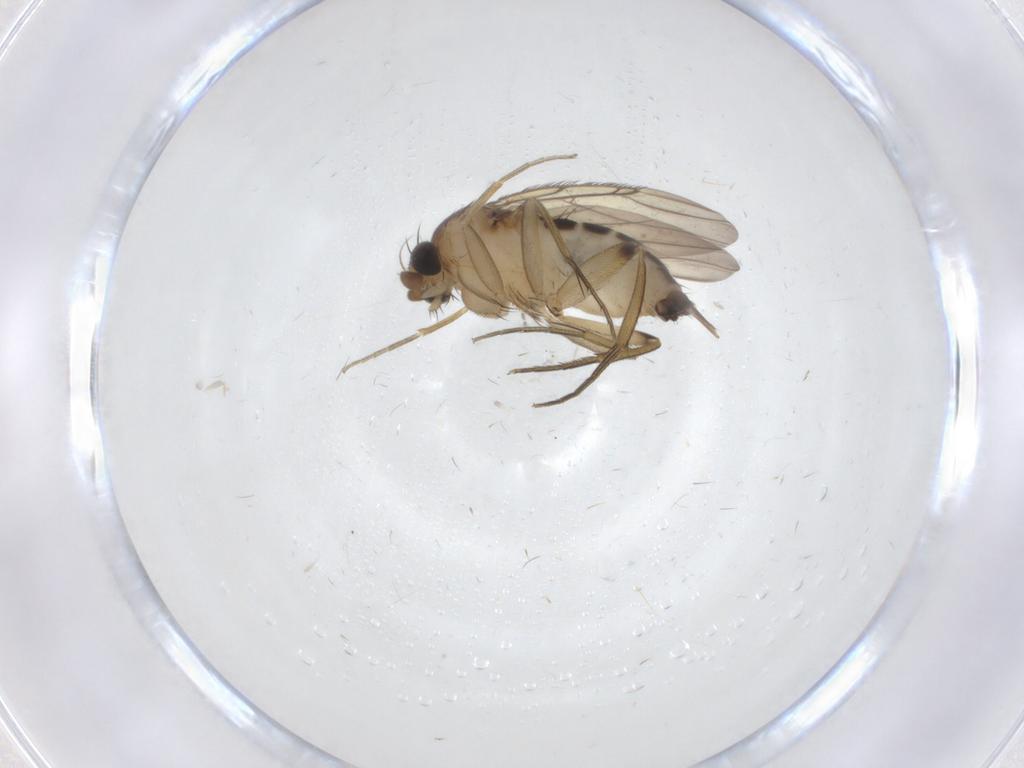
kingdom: Animalia
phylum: Arthropoda
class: Insecta
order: Diptera
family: Phoridae
